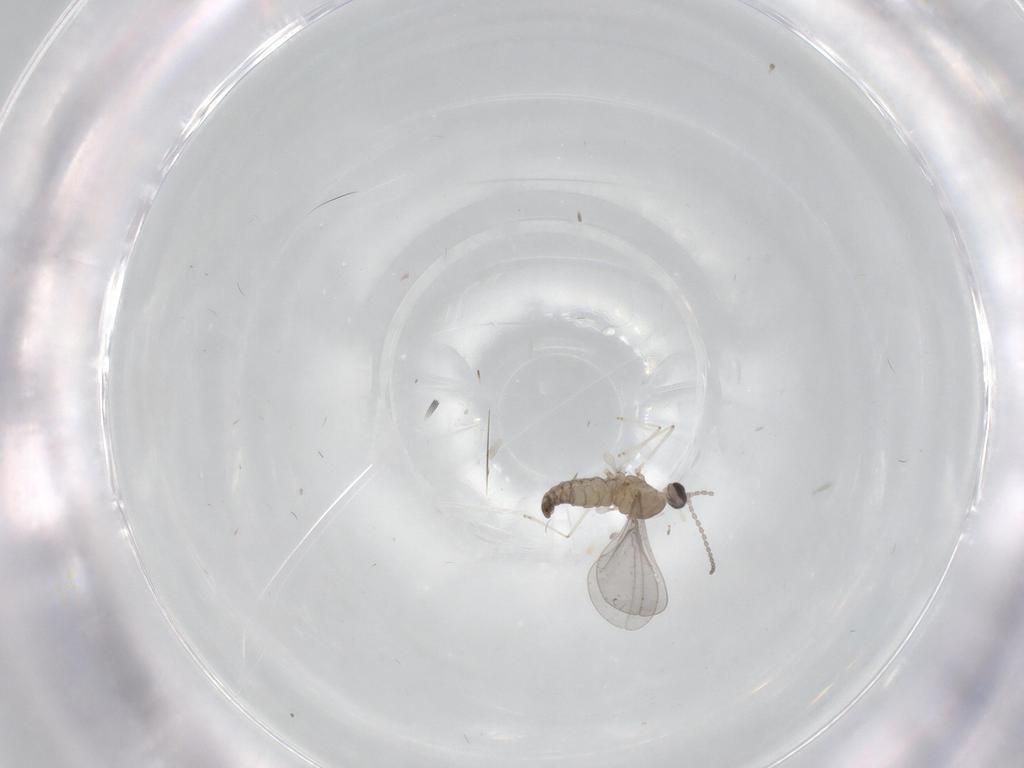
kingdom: Animalia
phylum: Arthropoda
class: Insecta
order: Diptera
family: Cecidomyiidae
